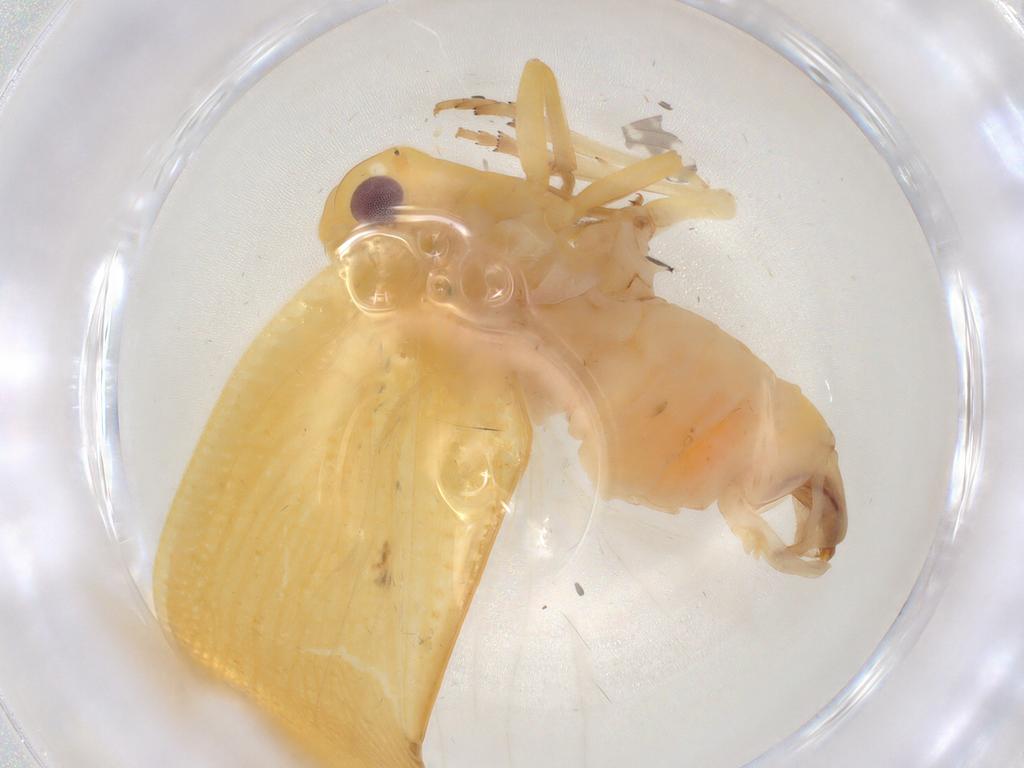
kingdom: Animalia
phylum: Arthropoda
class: Insecta
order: Hemiptera
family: Flatidae
